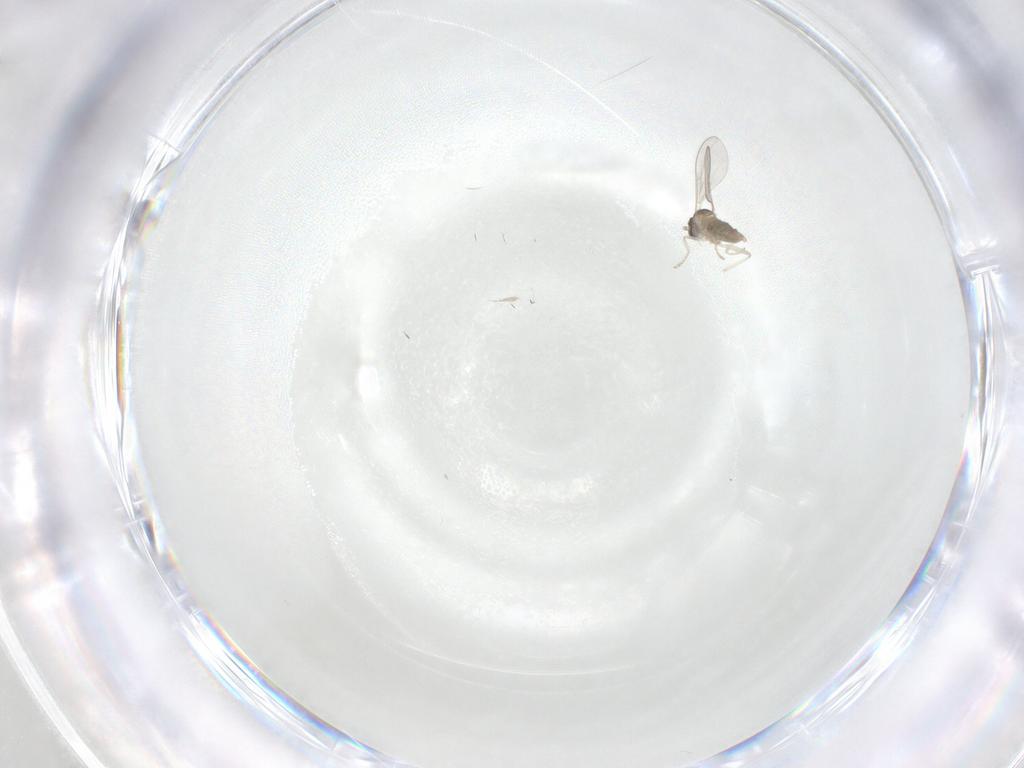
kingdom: Animalia
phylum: Arthropoda
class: Insecta
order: Diptera
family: Cecidomyiidae
